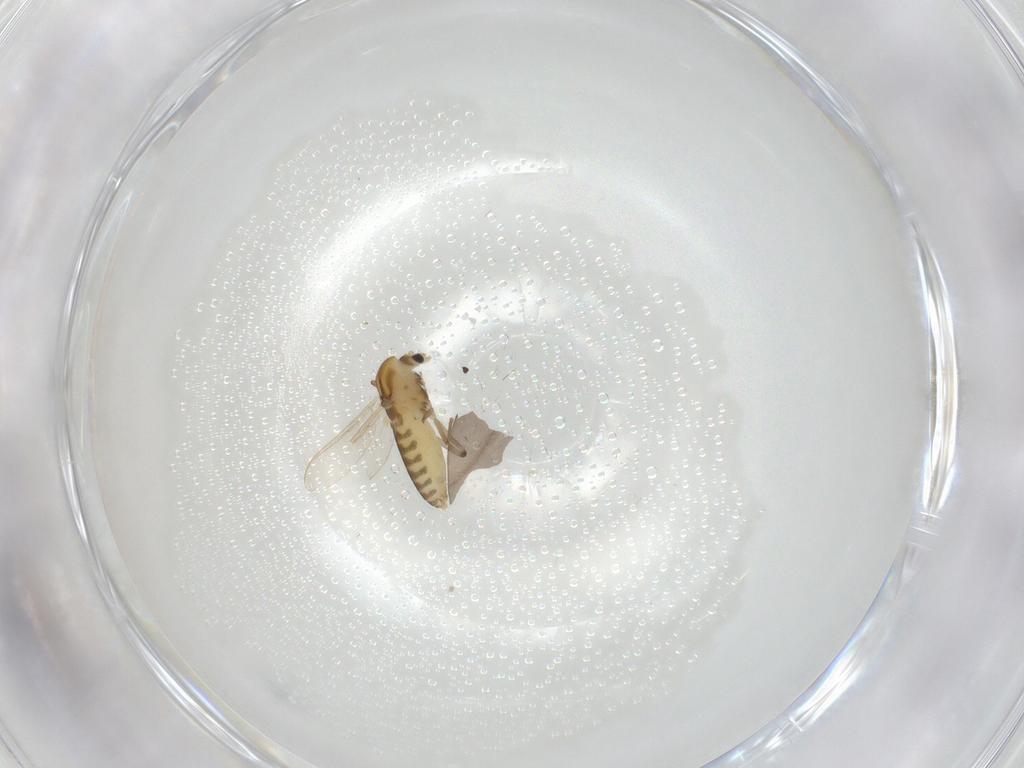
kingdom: Animalia
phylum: Arthropoda
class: Insecta
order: Diptera
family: Chironomidae
